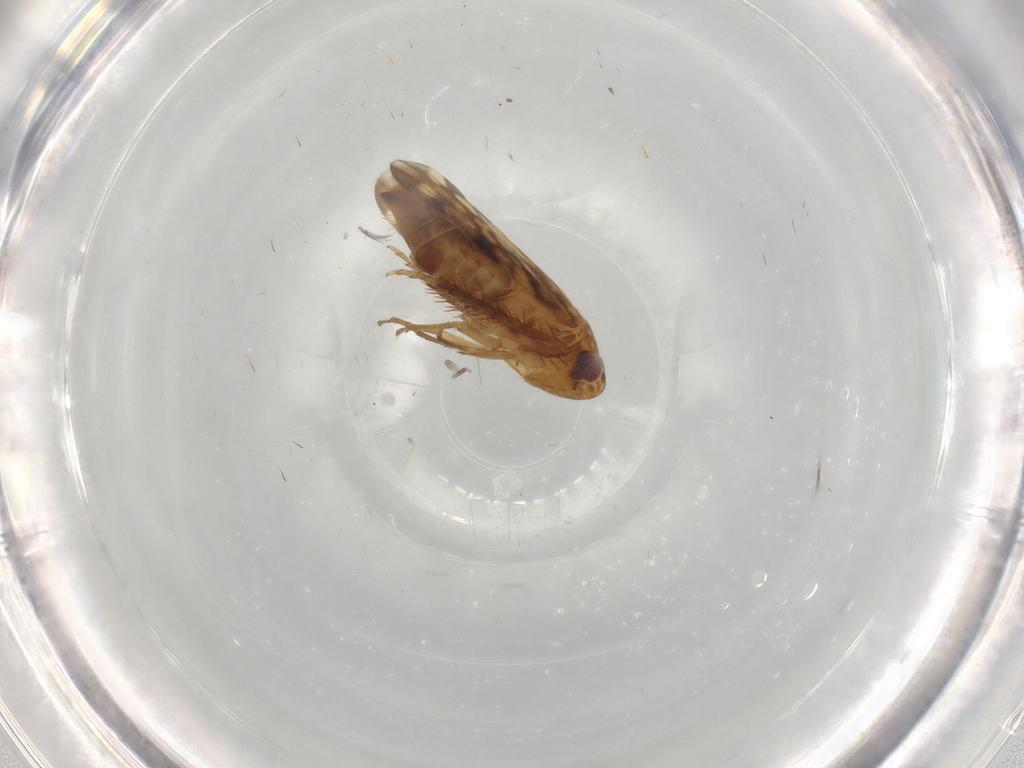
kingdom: Animalia
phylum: Arthropoda
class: Insecta
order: Hemiptera
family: Cicadellidae
